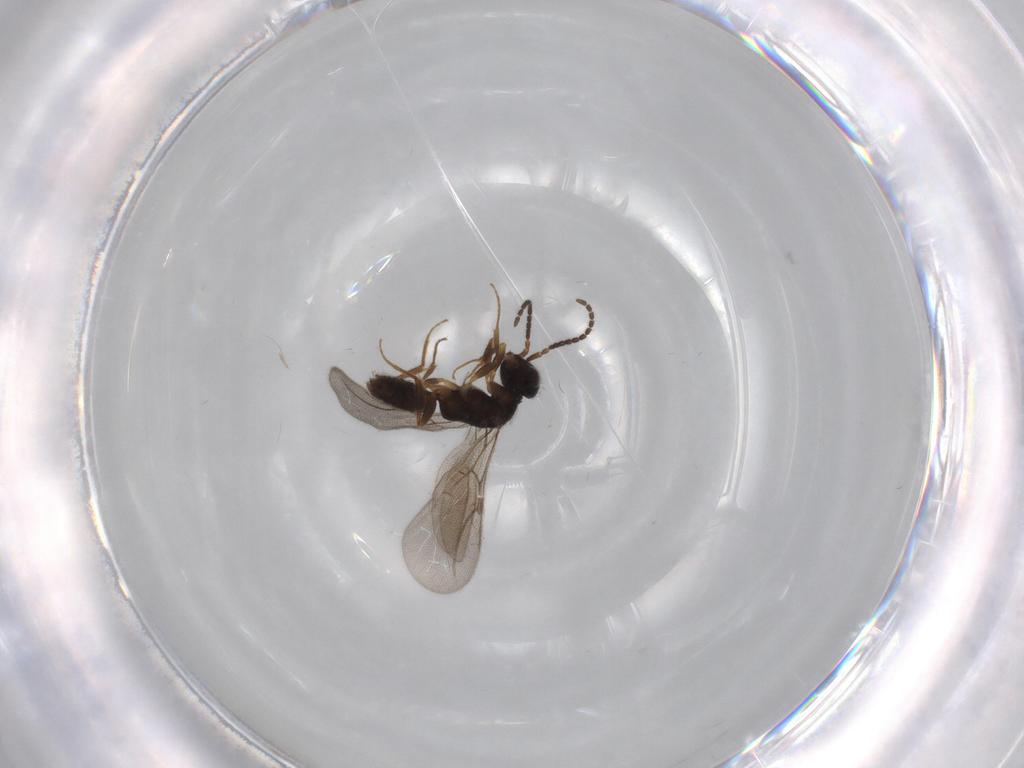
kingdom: Animalia
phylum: Arthropoda
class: Insecta
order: Hymenoptera
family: Bethylidae
